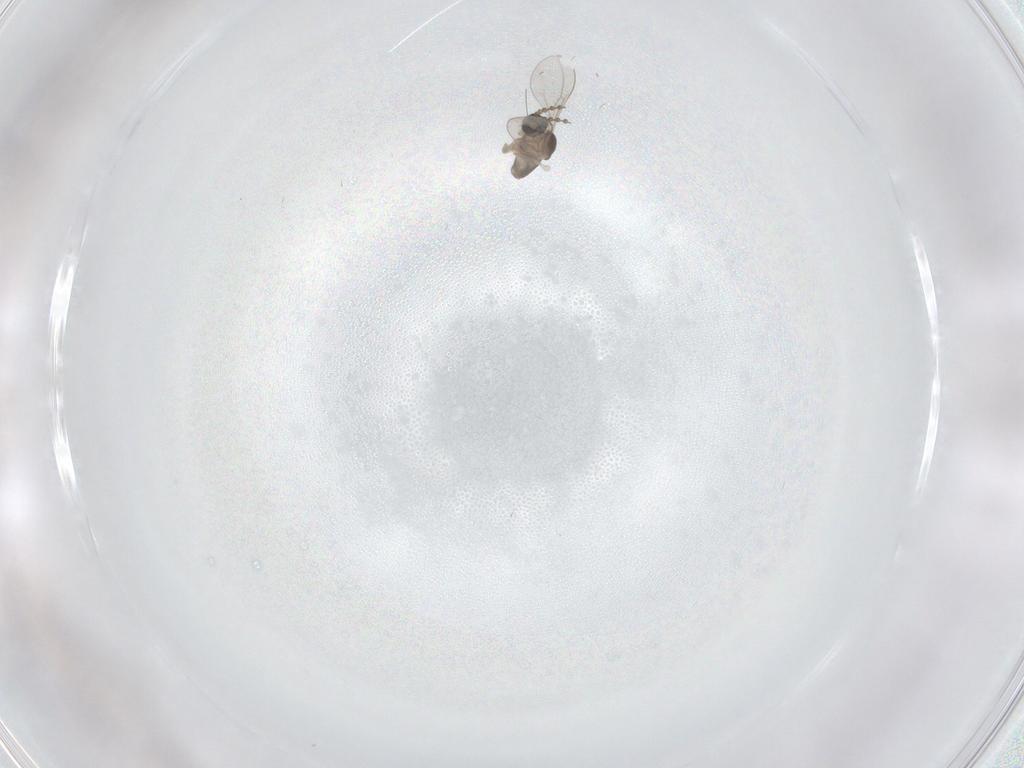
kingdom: Animalia
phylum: Arthropoda
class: Insecta
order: Diptera
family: Cecidomyiidae
